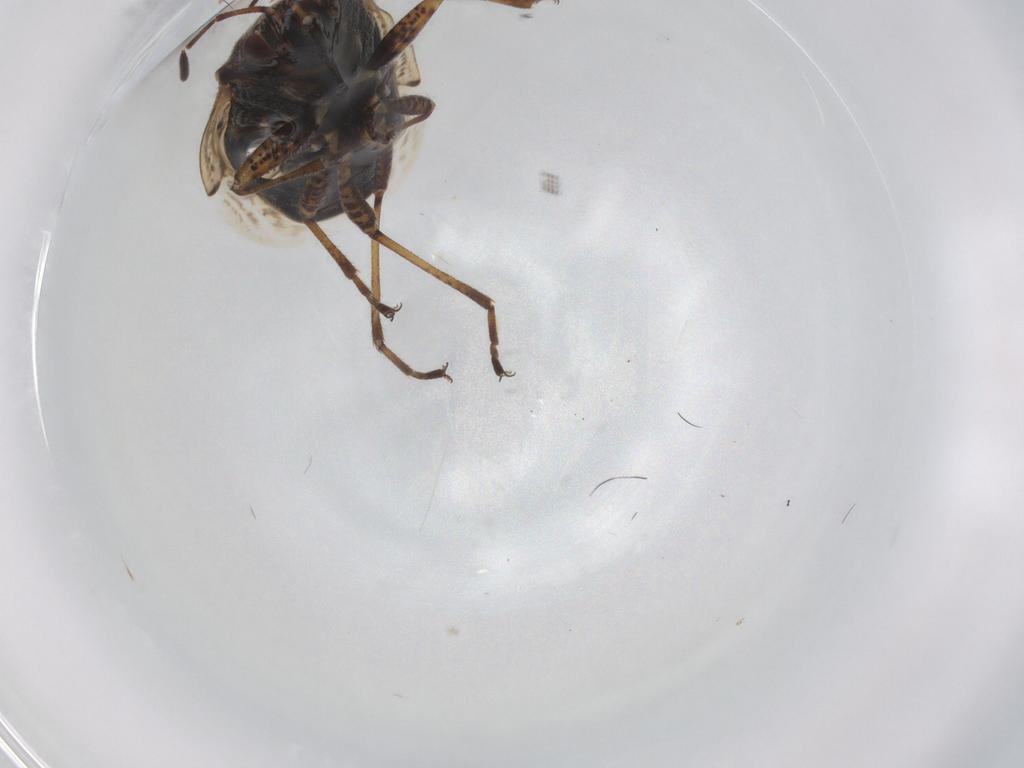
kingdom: Animalia
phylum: Arthropoda
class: Insecta
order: Hemiptera
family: Lygaeidae
